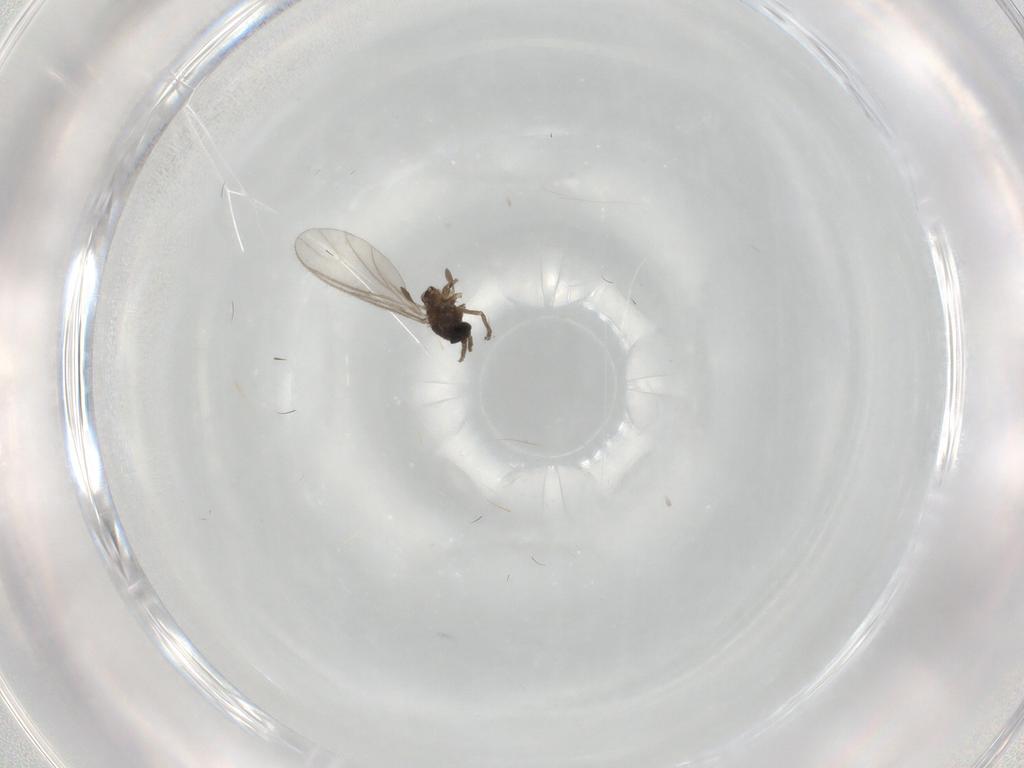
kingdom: Animalia
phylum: Arthropoda
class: Insecta
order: Diptera
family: Sciaridae
